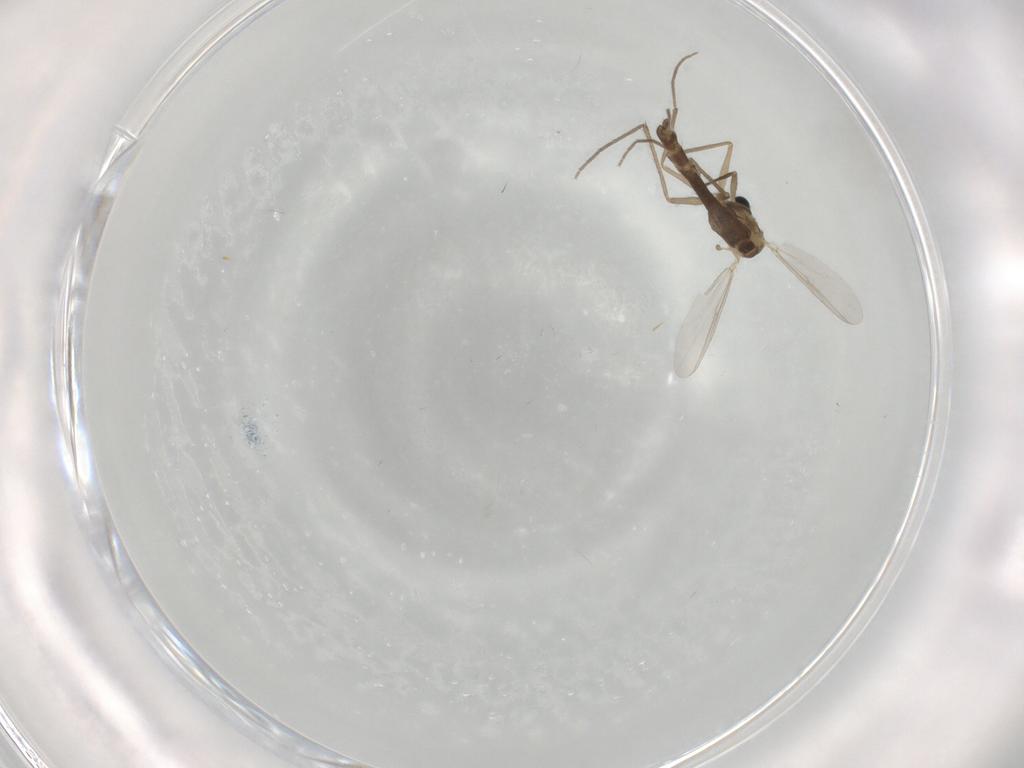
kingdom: Animalia
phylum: Arthropoda
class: Insecta
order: Diptera
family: Chironomidae
